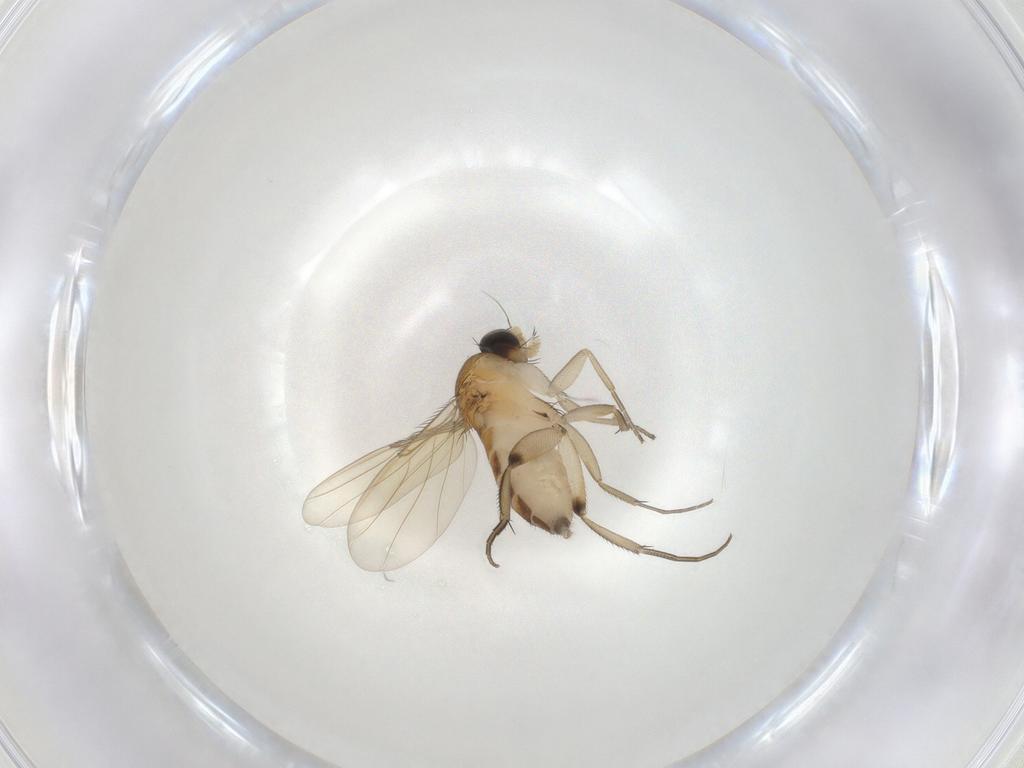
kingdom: Animalia
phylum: Arthropoda
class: Insecta
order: Diptera
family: Phoridae
